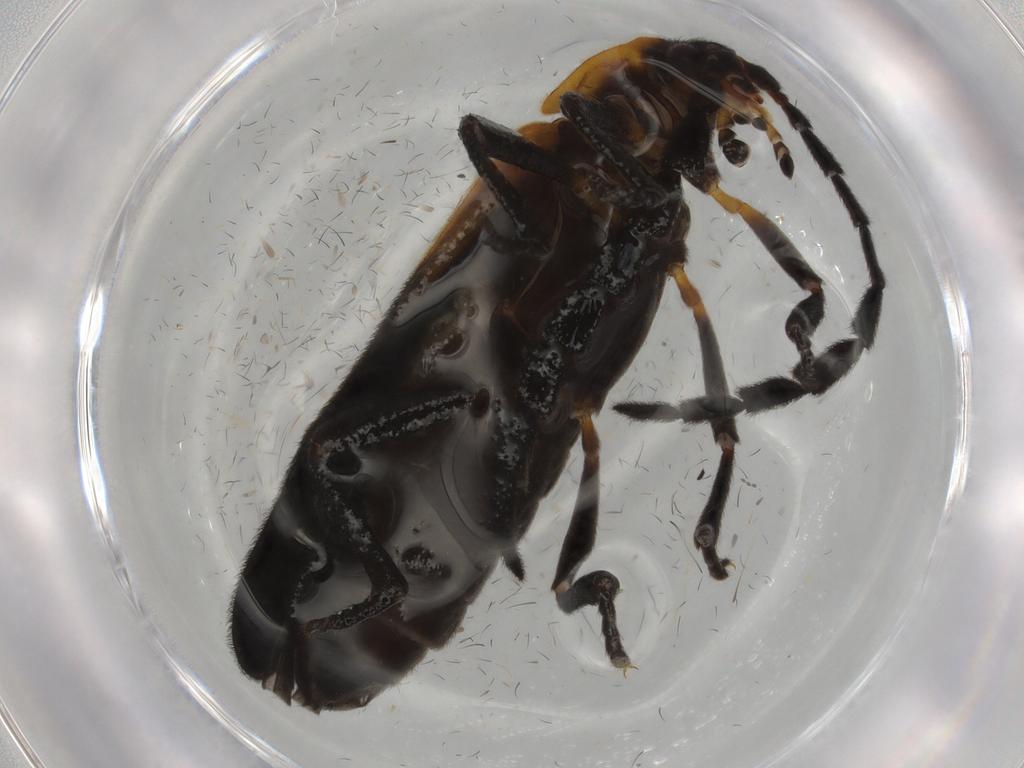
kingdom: Animalia
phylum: Arthropoda
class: Insecta
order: Coleoptera
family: Lycidae
